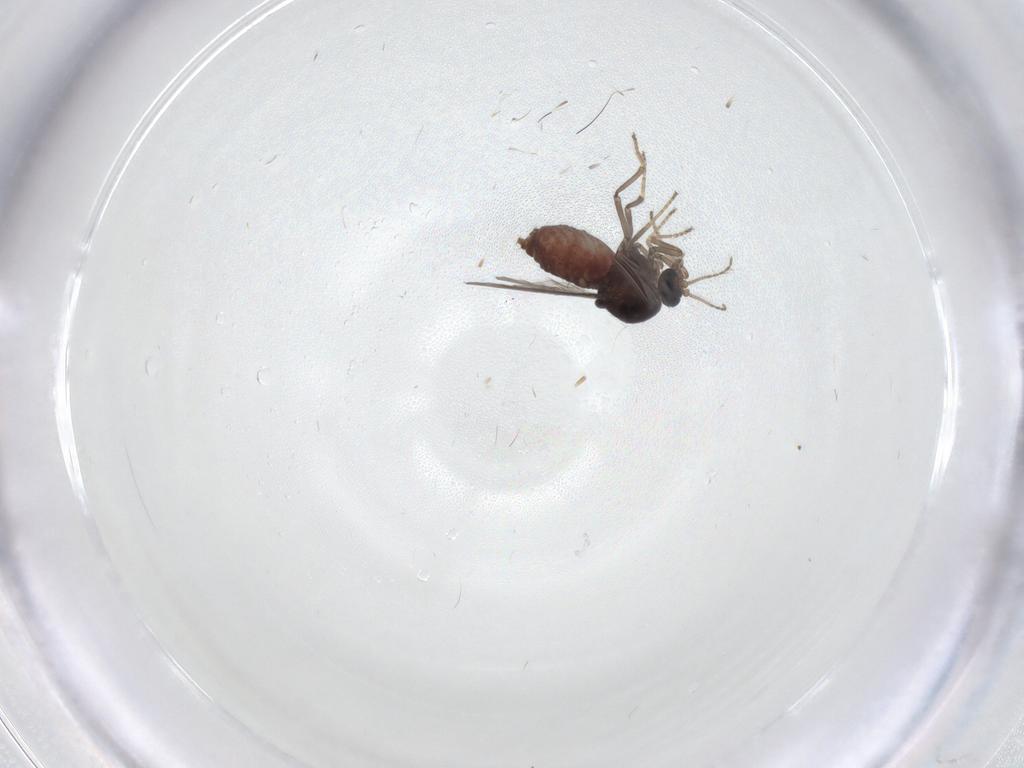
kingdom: Animalia
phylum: Arthropoda
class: Insecta
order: Diptera
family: Ceratopogonidae
